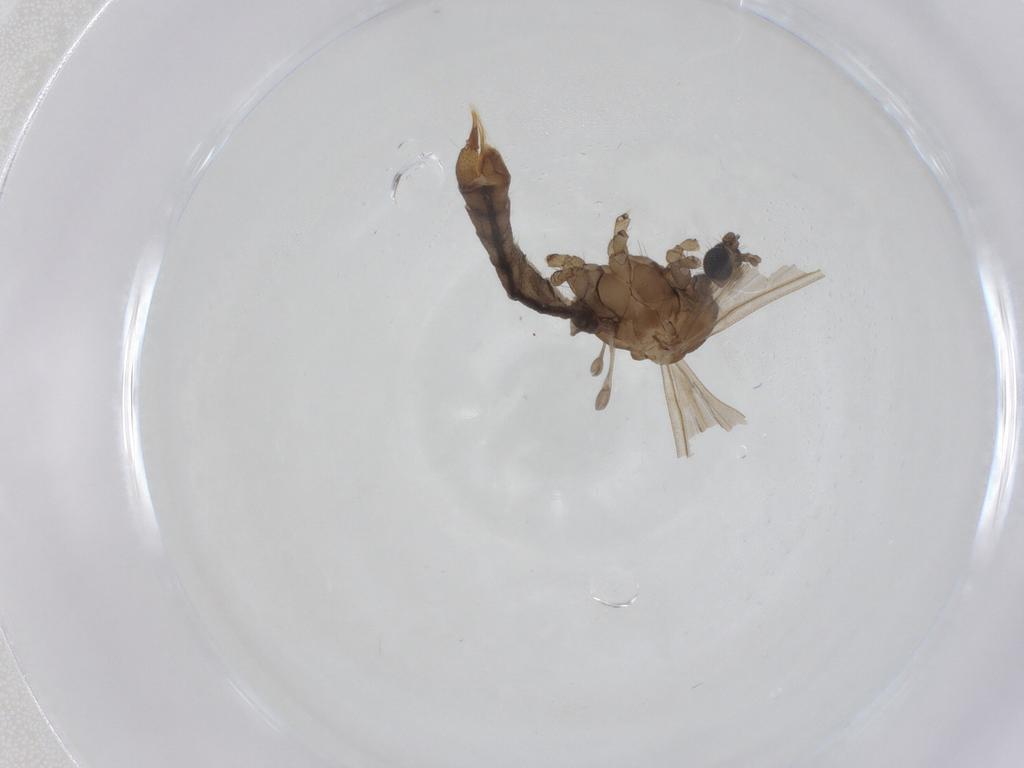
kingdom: Animalia
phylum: Arthropoda
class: Insecta
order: Diptera
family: Limoniidae
